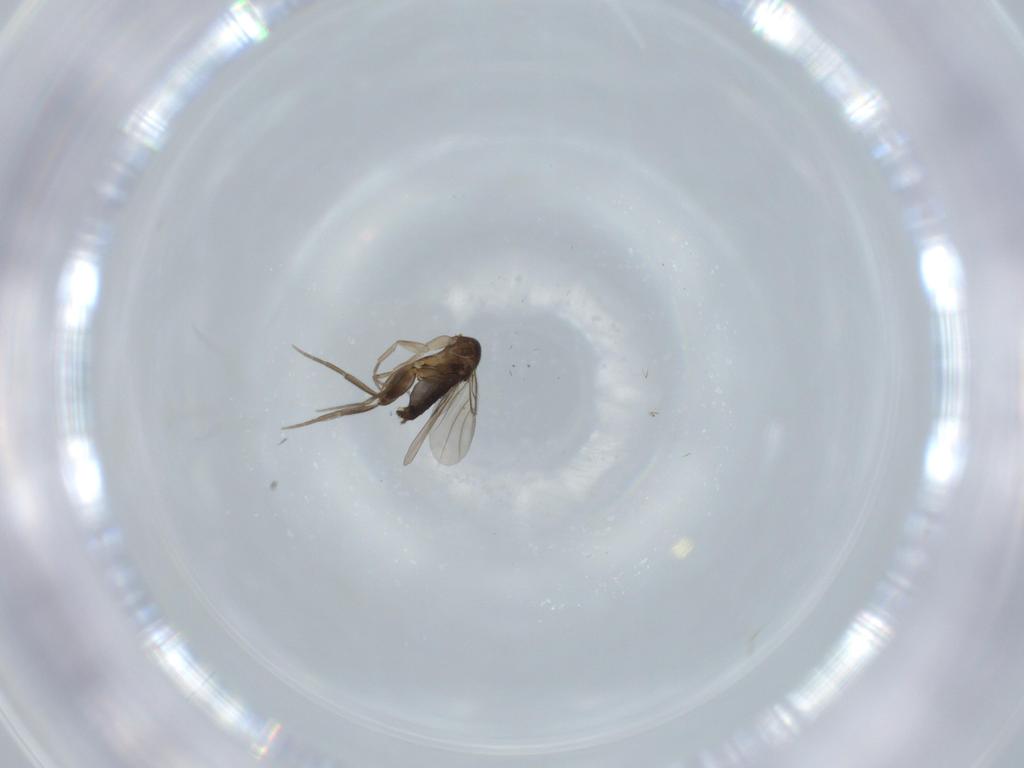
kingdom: Animalia
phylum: Arthropoda
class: Insecta
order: Diptera
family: Phoridae
